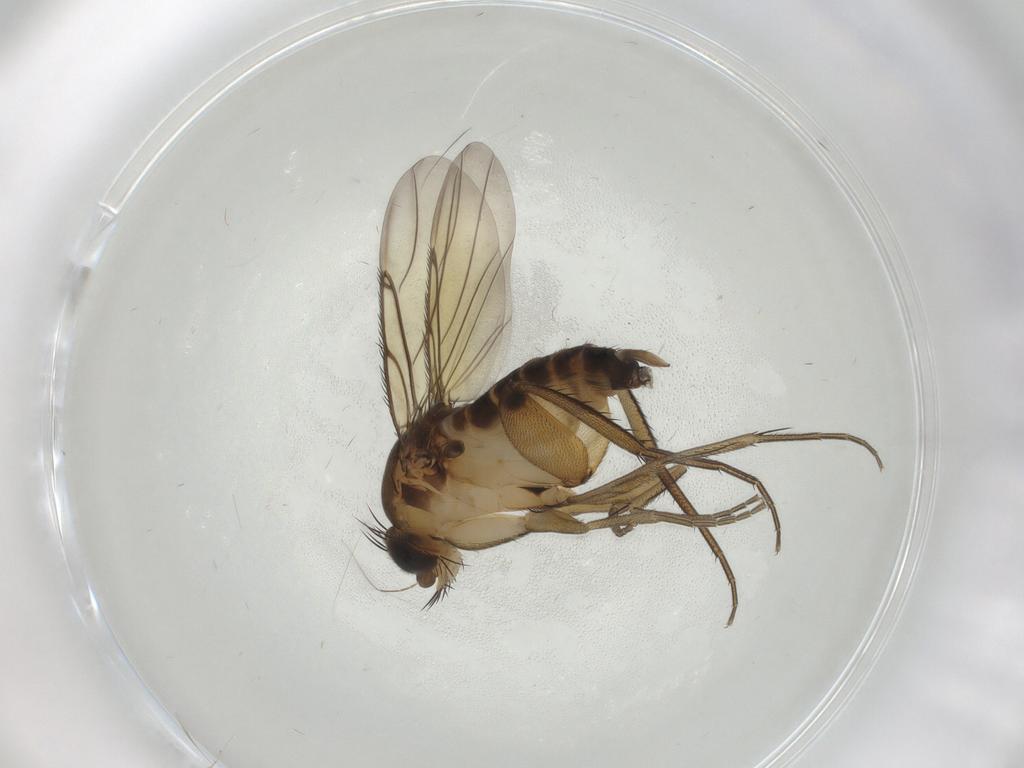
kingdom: Animalia
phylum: Arthropoda
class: Insecta
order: Diptera
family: Phoridae
